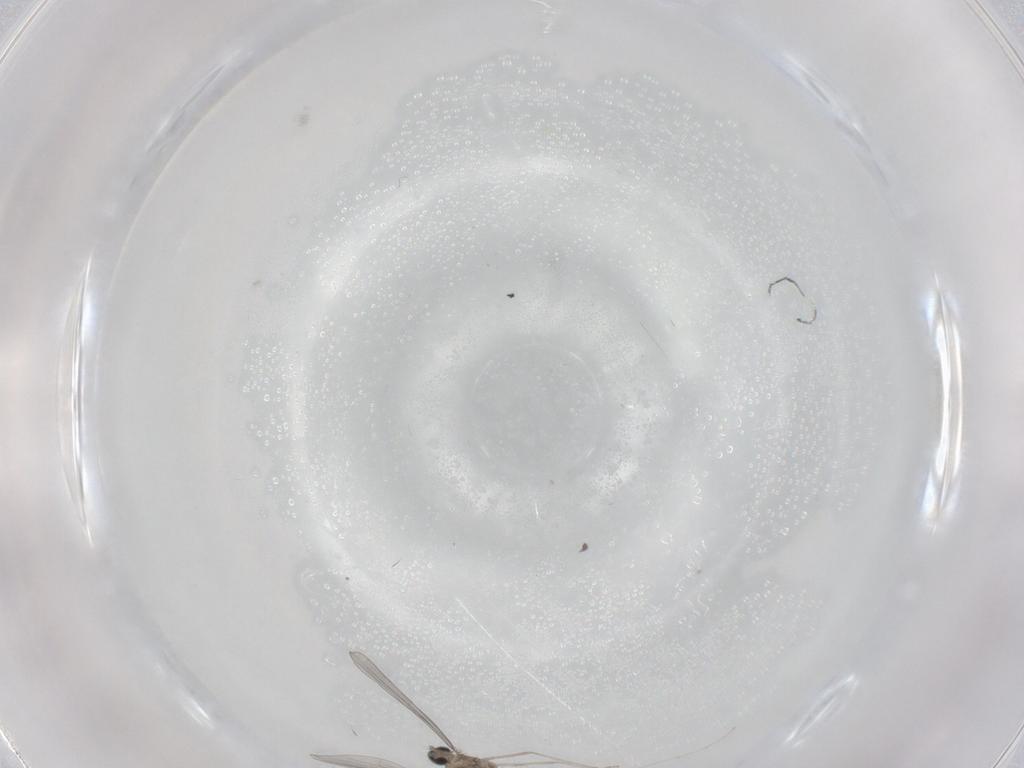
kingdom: Animalia
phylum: Arthropoda
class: Insecta
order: Diptera
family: Cecidomyiidae
